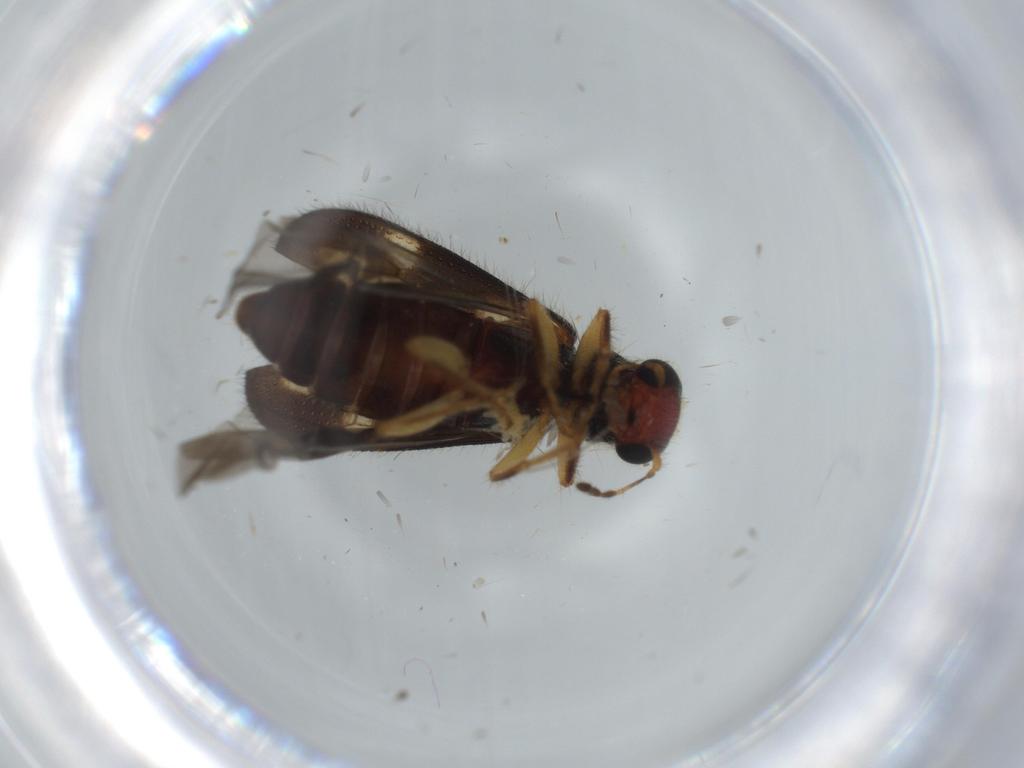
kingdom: Animalia
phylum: Arthropoda
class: Insecta
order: Coleoptera
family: Cleridae
